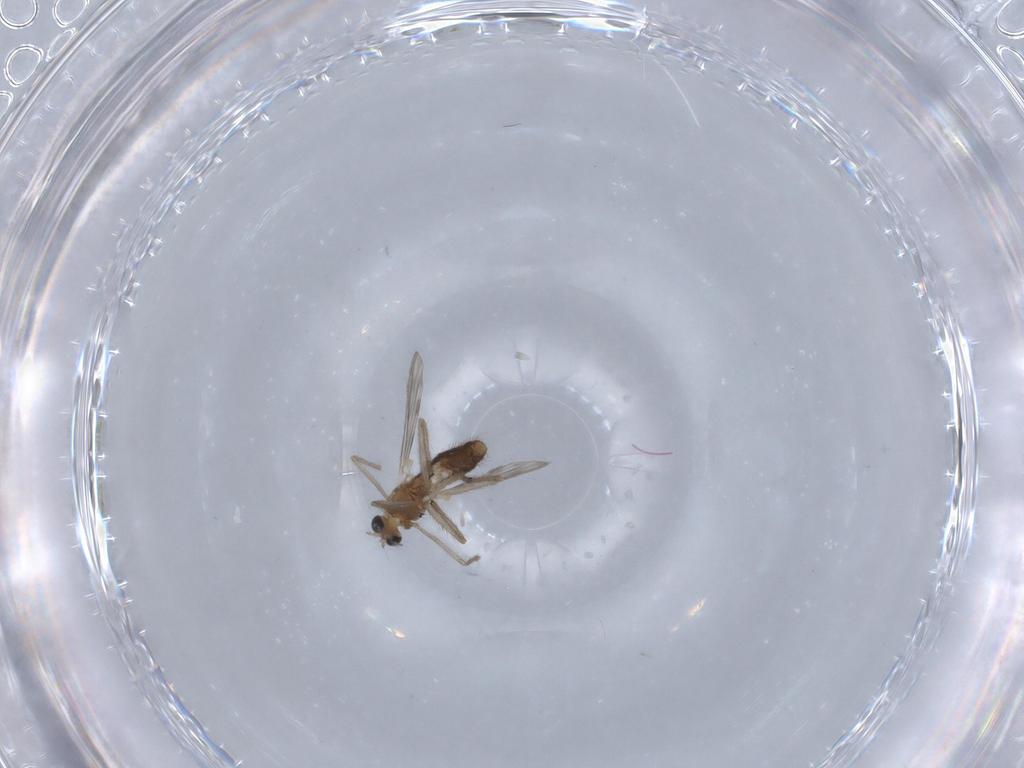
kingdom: Animalia
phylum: Arthropoda
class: Insecta
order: Diptera
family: Chironomidae
